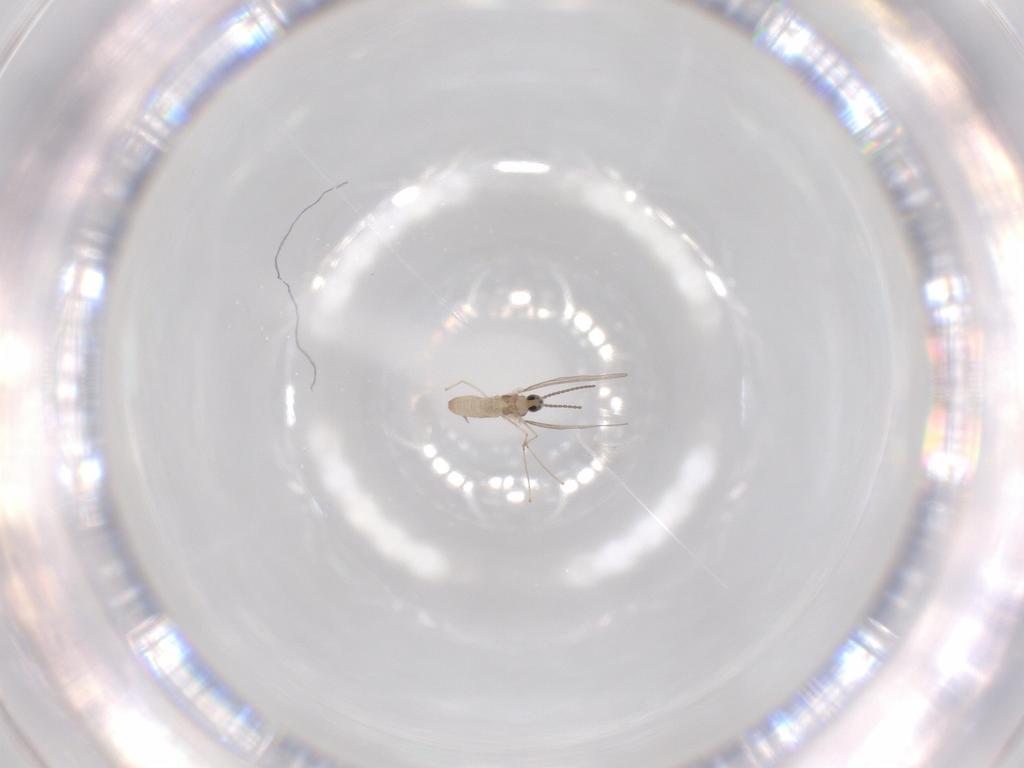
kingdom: Animalia
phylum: Arthropoda
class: Insecta
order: Diptera
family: Cecidomyiidae
